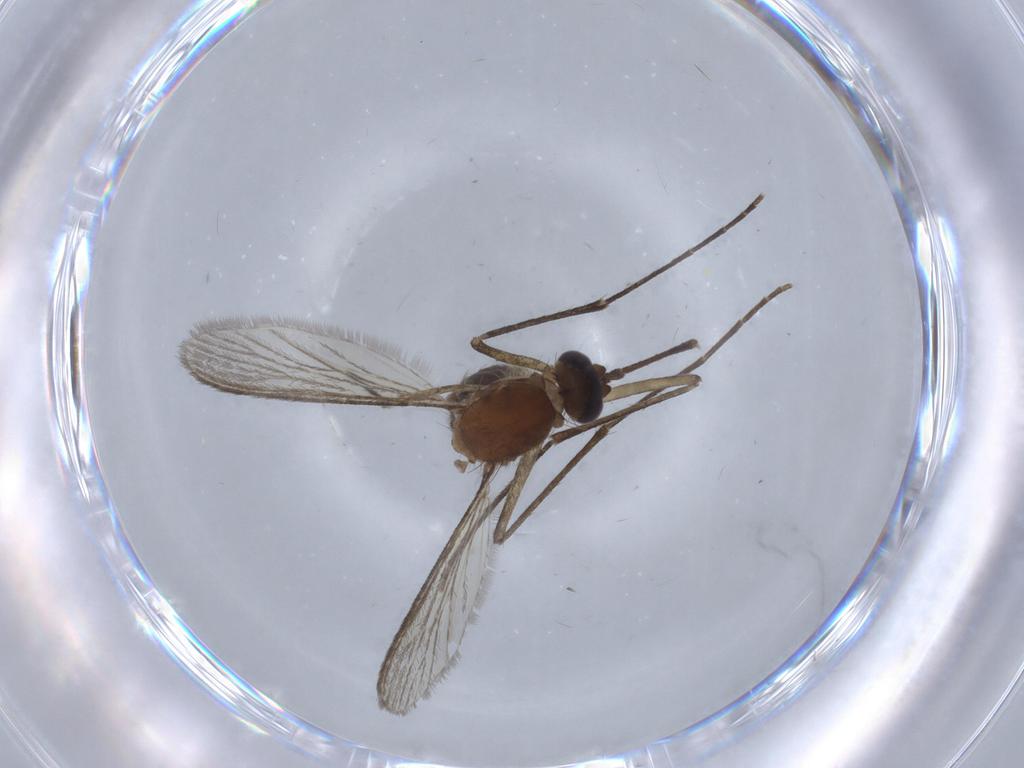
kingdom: Animalia
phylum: Arthropoda
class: Insecta
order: Diptera
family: Culicidae
